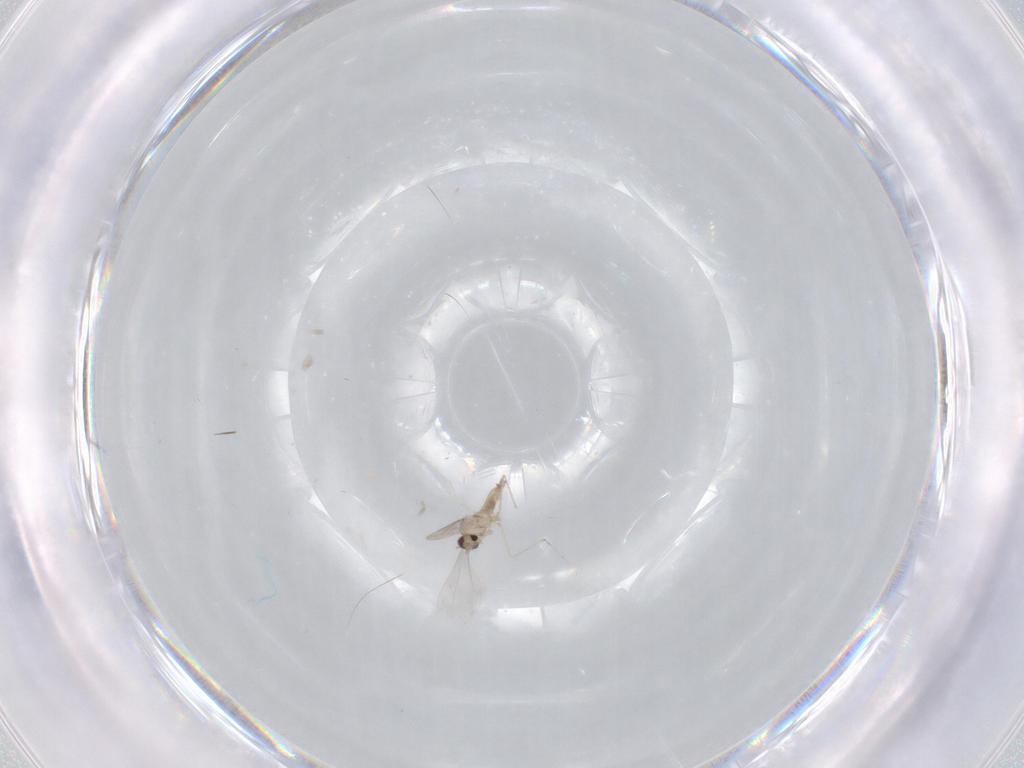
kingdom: Animalia
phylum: Arthropoda
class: Insecta
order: Diptera
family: Cecidomyiidae
